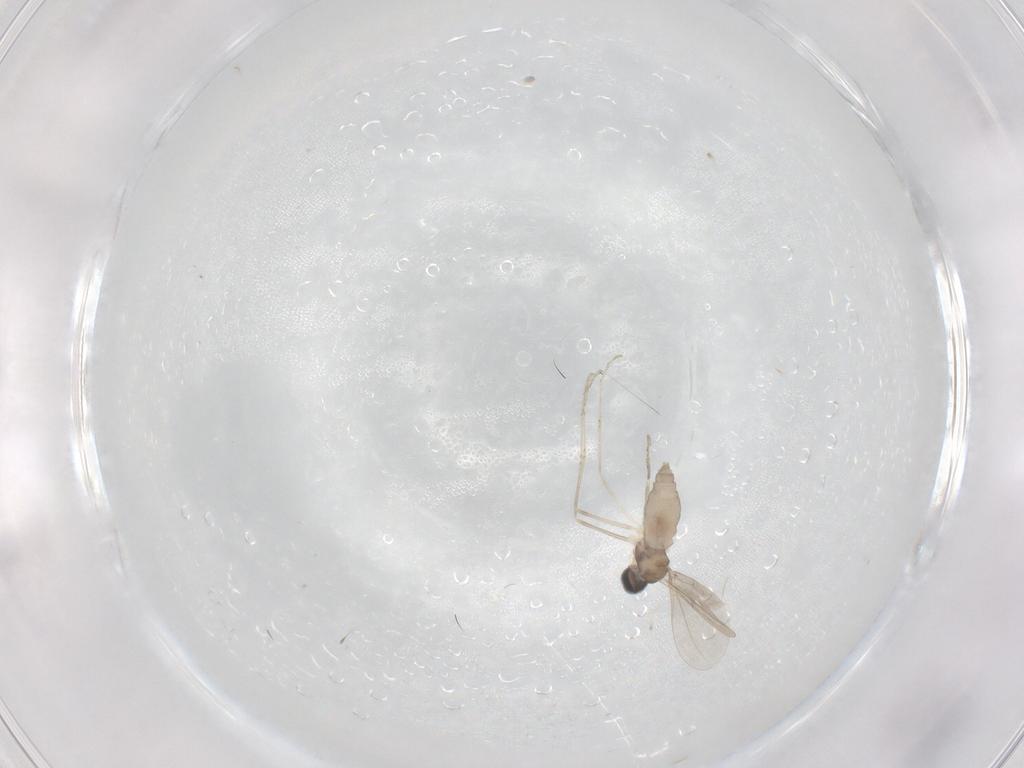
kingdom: Animalia
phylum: Arthropoda
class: Insecta
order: Diptera
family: Cecidomyiidae
